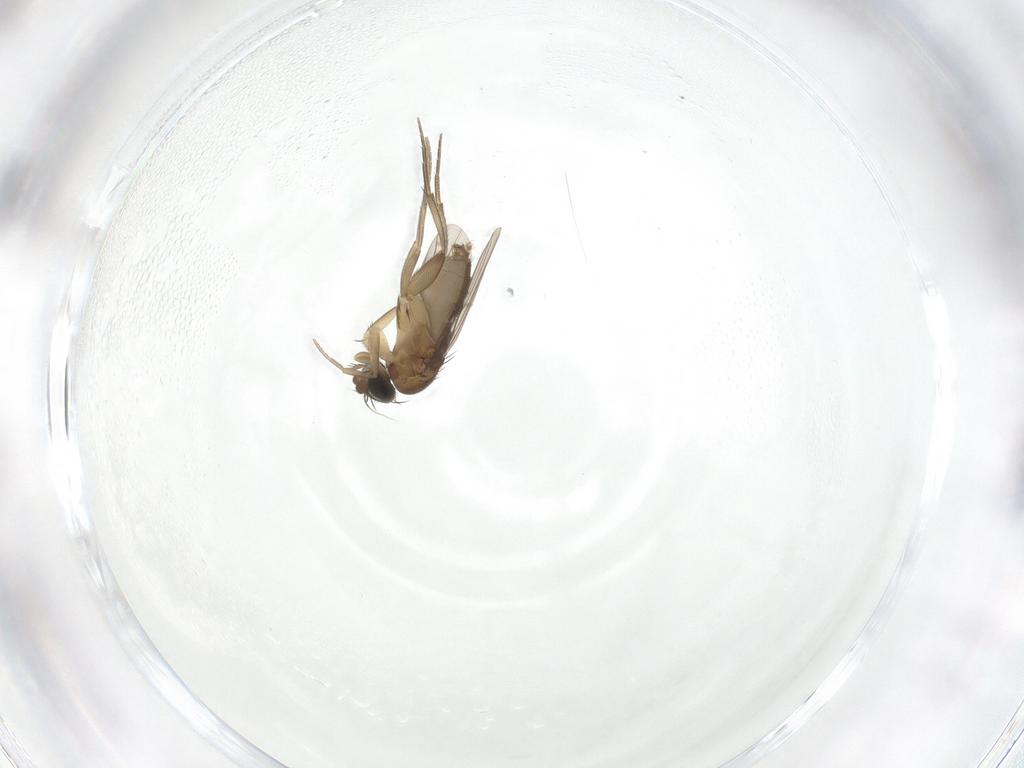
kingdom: Animalia
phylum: Arthropoda
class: Insecta
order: Diptera
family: Phoridae
